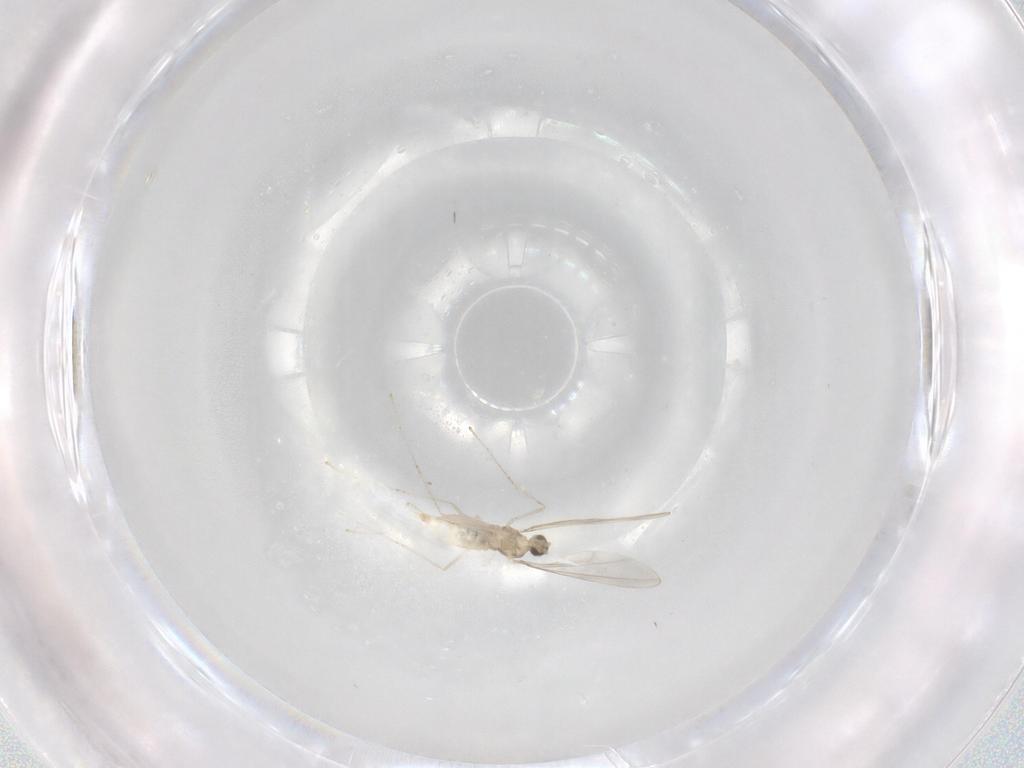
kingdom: Animalia
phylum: Arthropoda
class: Insecta
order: Diptera
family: Cecidomyiidae
